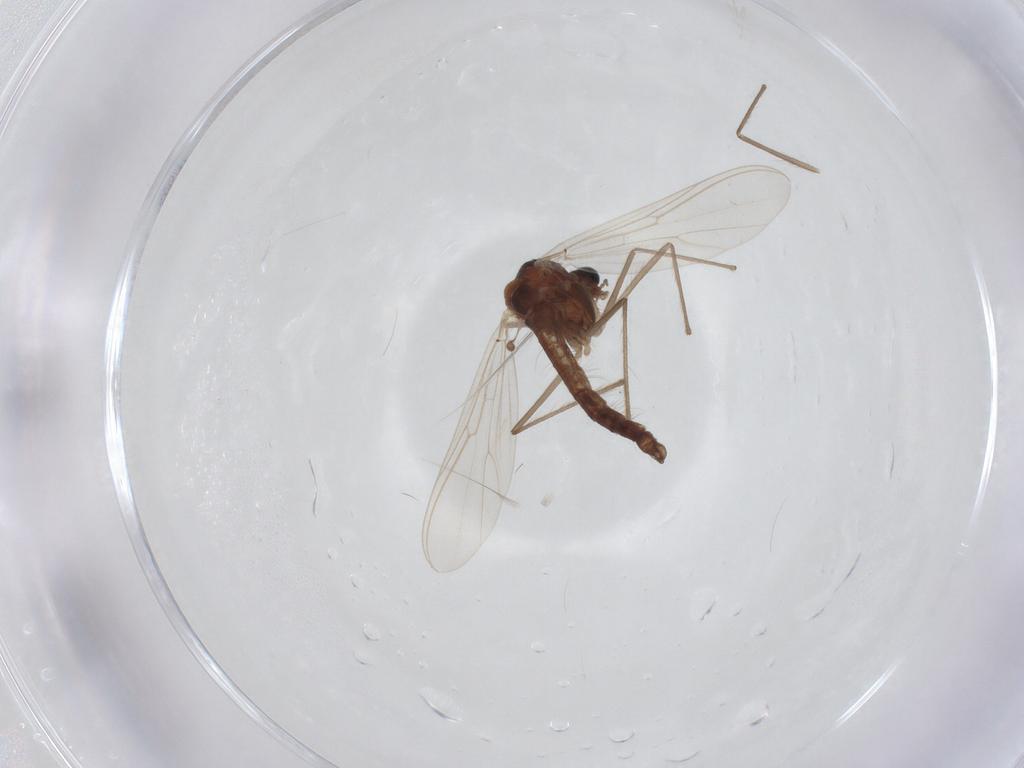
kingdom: Animalia
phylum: Arthropoda
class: Insecta
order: Diptera
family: Chironomidae
